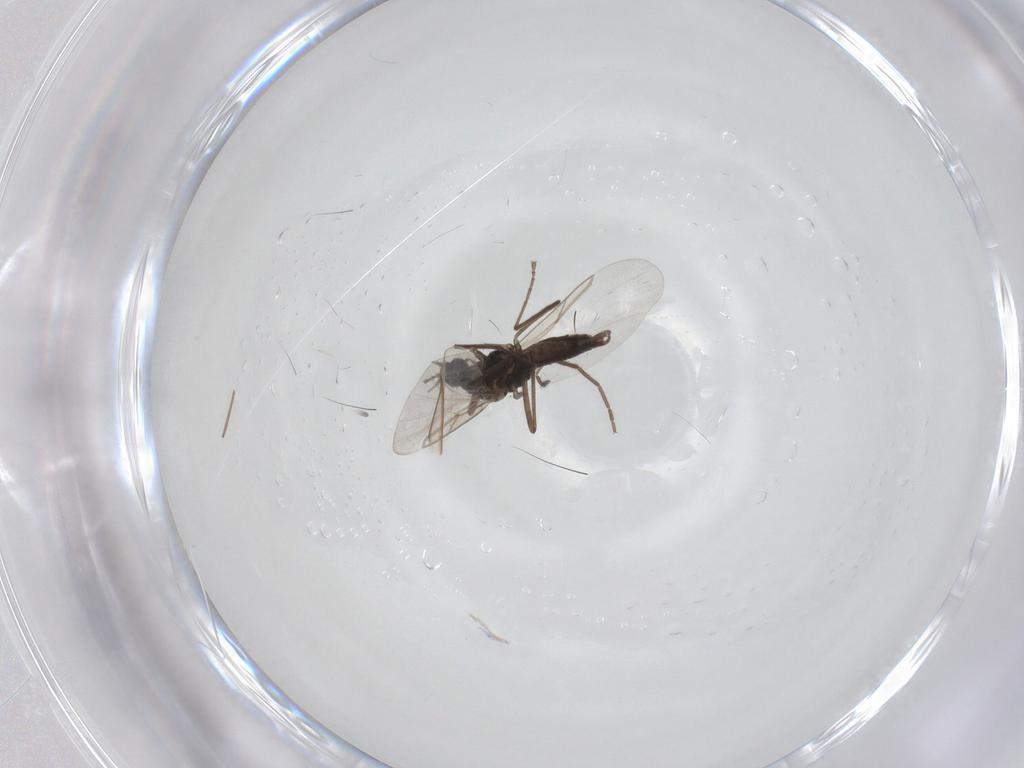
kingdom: Animalia
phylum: Arthropoda
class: Insecta
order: Diptera
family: Cecidomyiidae
